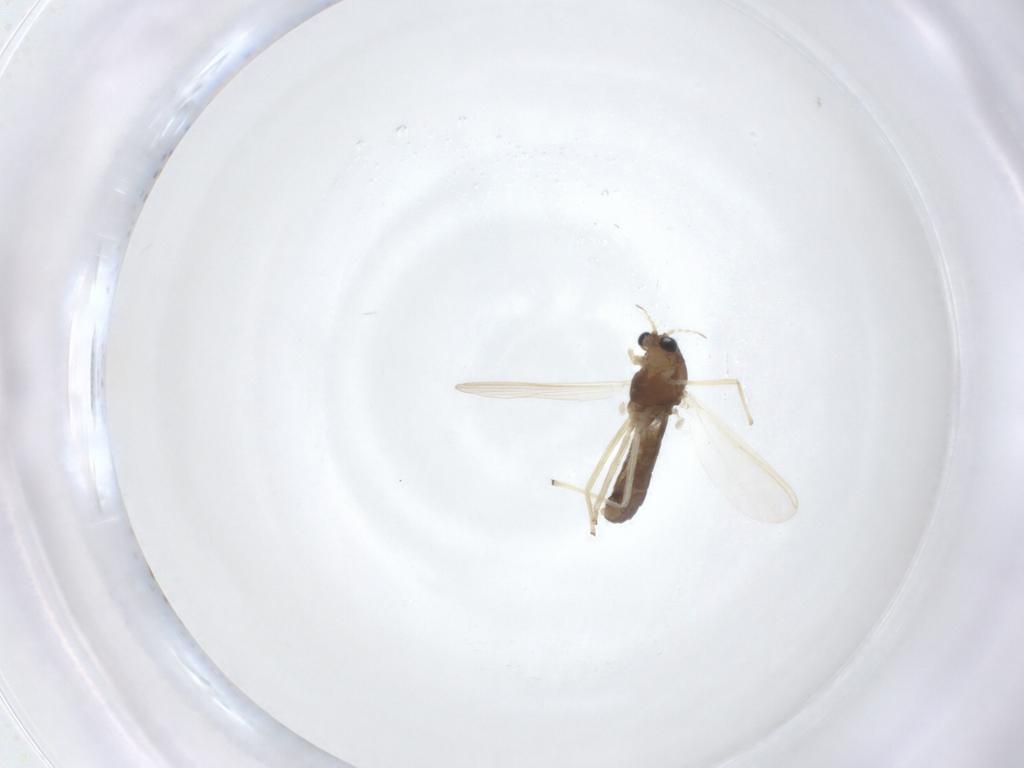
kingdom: Animalia
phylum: Arthropoda
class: Insecta
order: Diptera
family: Chironomidae
